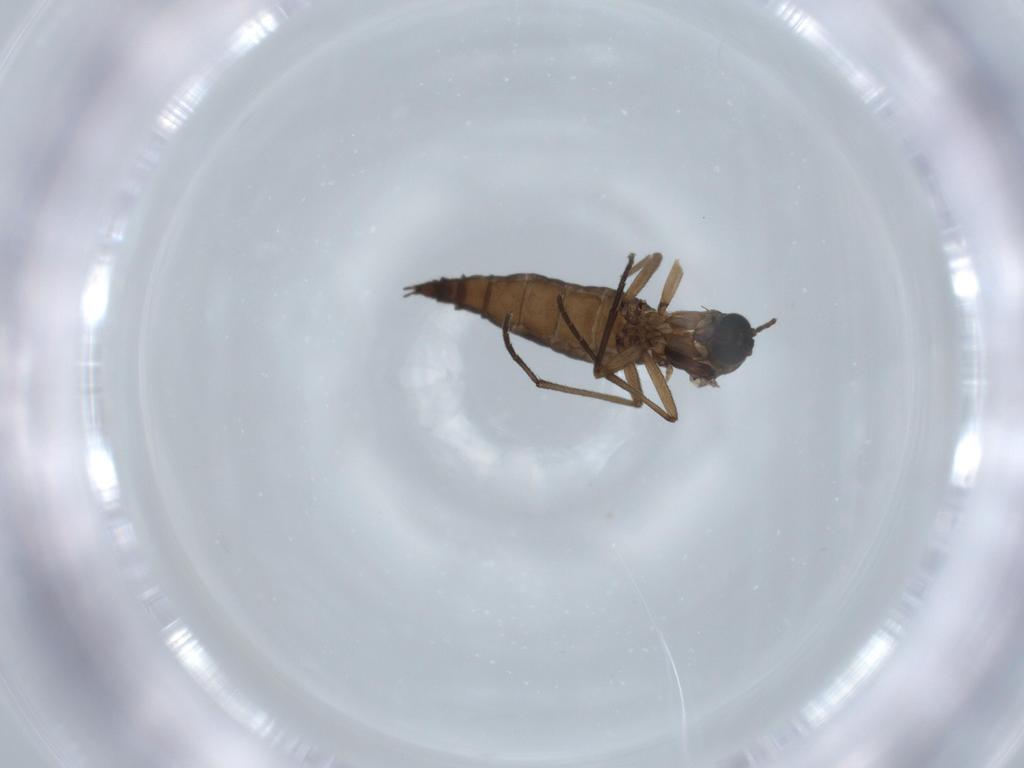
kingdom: Animalia
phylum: Arthropoda
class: Insecta
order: Diptera
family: Sciaridae
